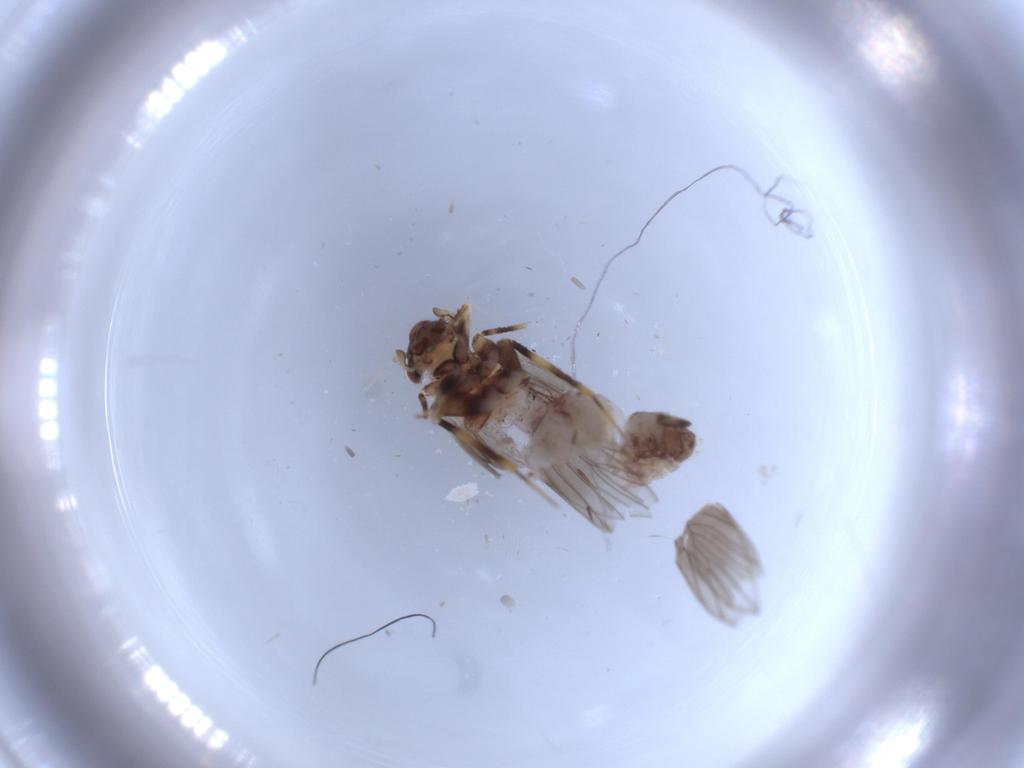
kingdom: Animalia
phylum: Arthropoda
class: Insecta
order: Psocodea
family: Lepidopsocidae
